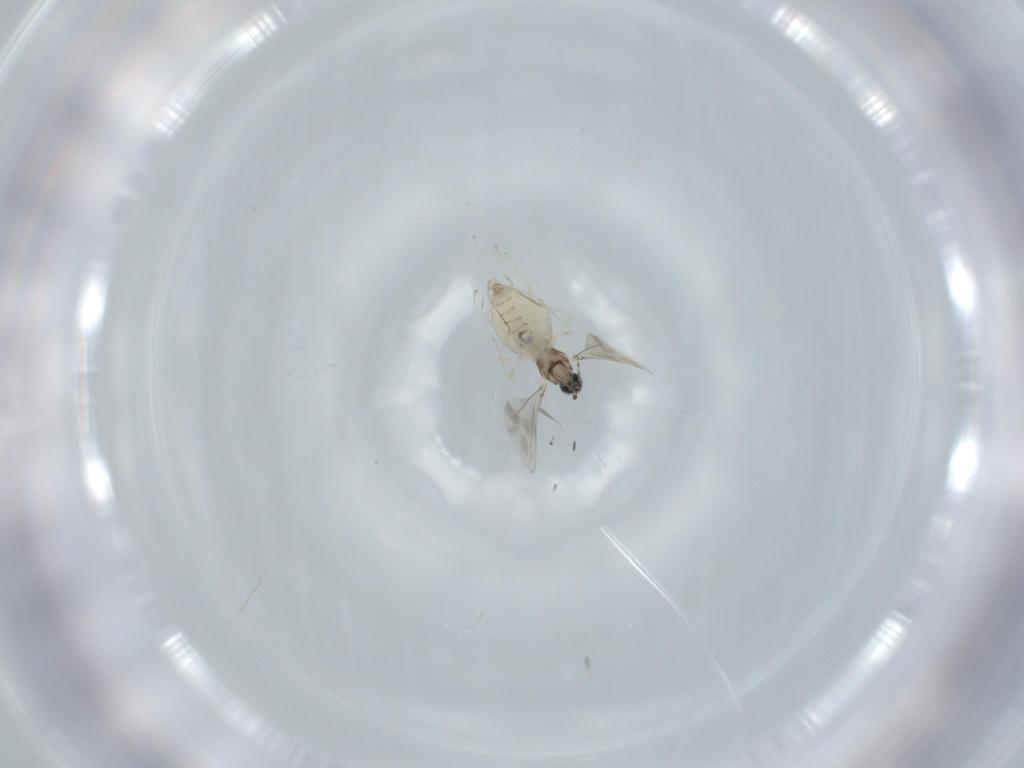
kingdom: Animalia
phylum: Arthropoda
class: Insecta
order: Diptera
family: Cecidomyiidae
